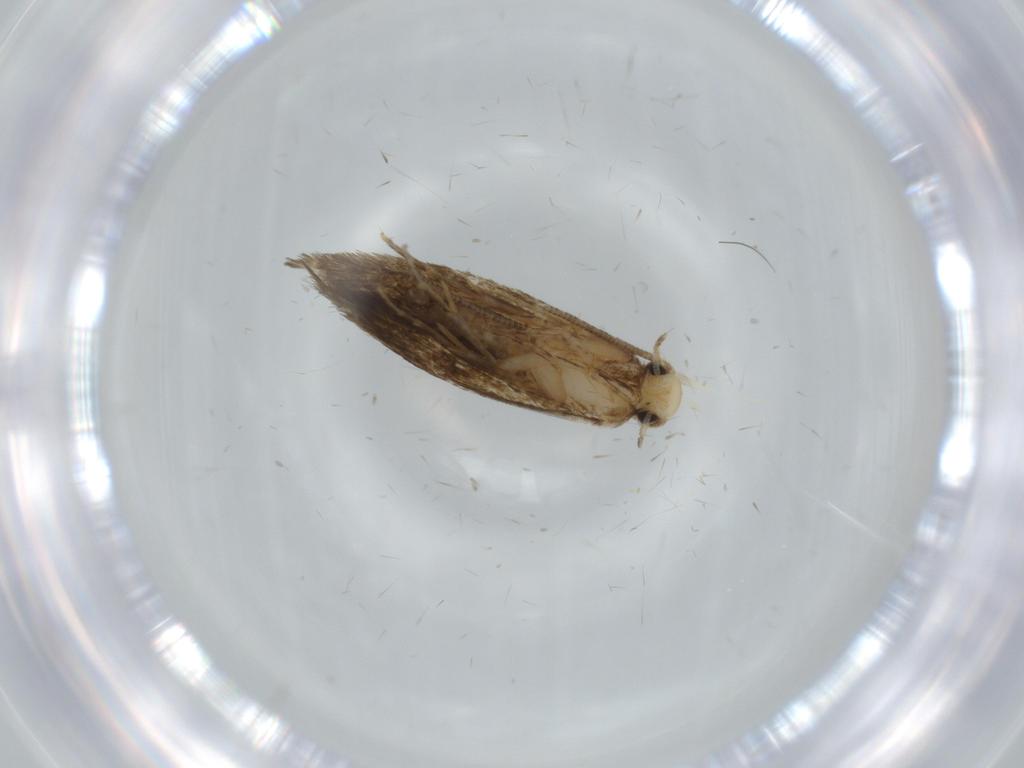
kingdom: Animalia
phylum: Arthropoda
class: Insecta
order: Lepidoptera
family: Tineidae
